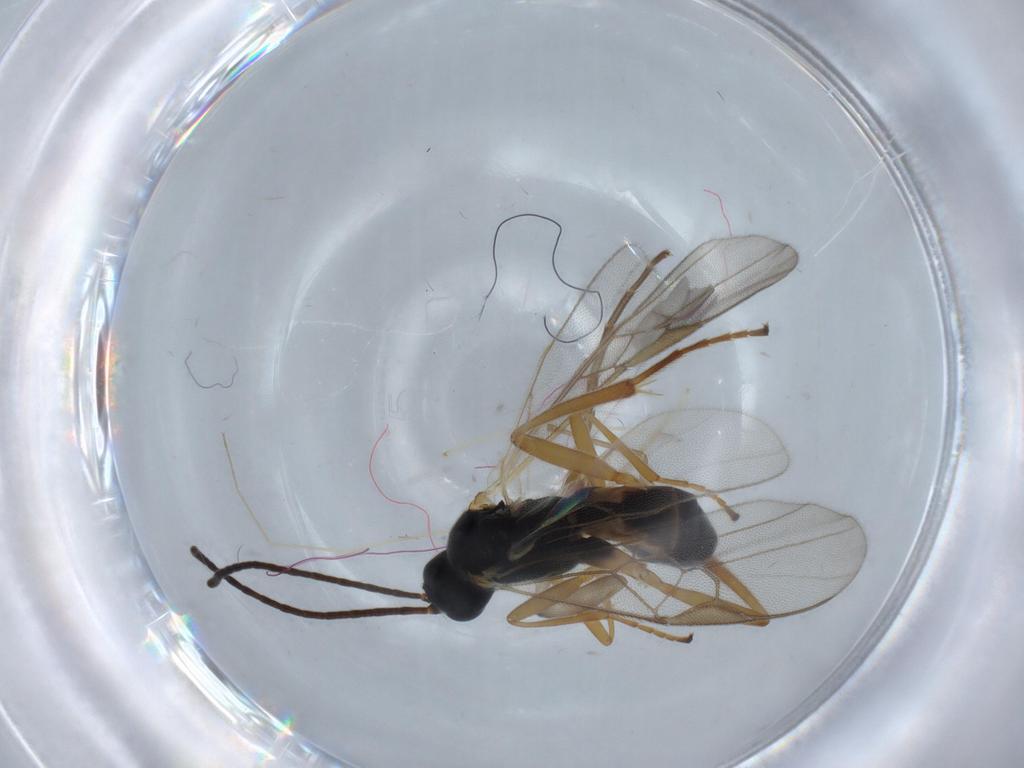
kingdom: Animalia
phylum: Arthropoda
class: Insecta
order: Hymenoptera
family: Braconidae
